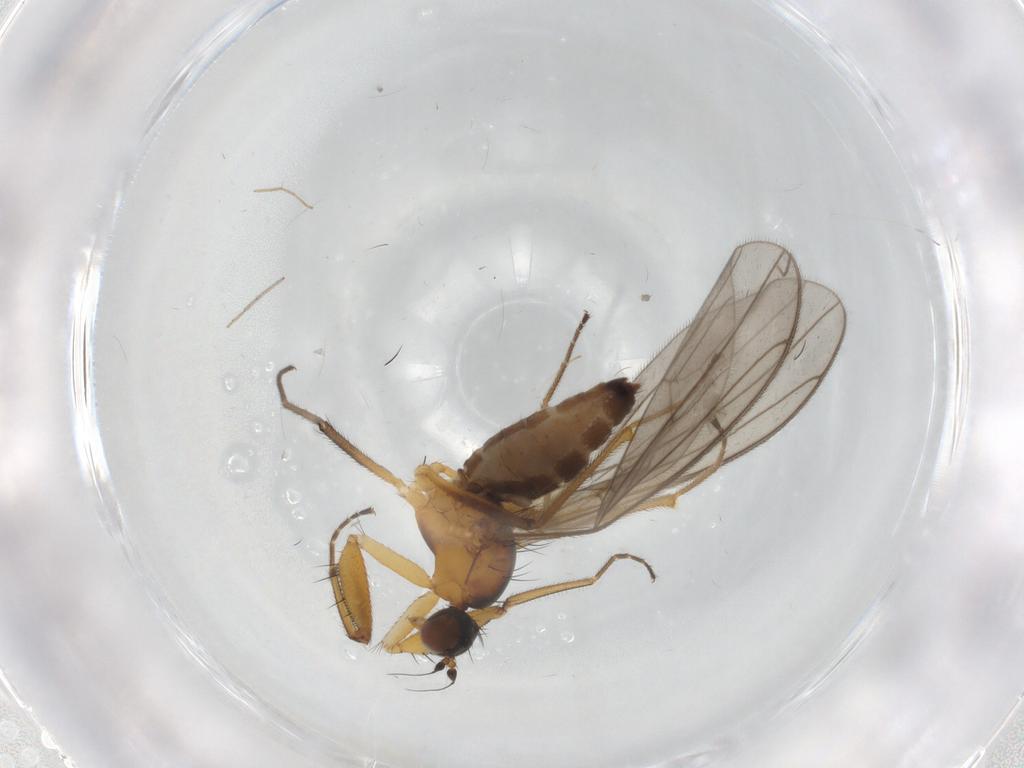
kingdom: Animalia
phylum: Arthropoda
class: Insecta
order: Diptera
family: Empididae
